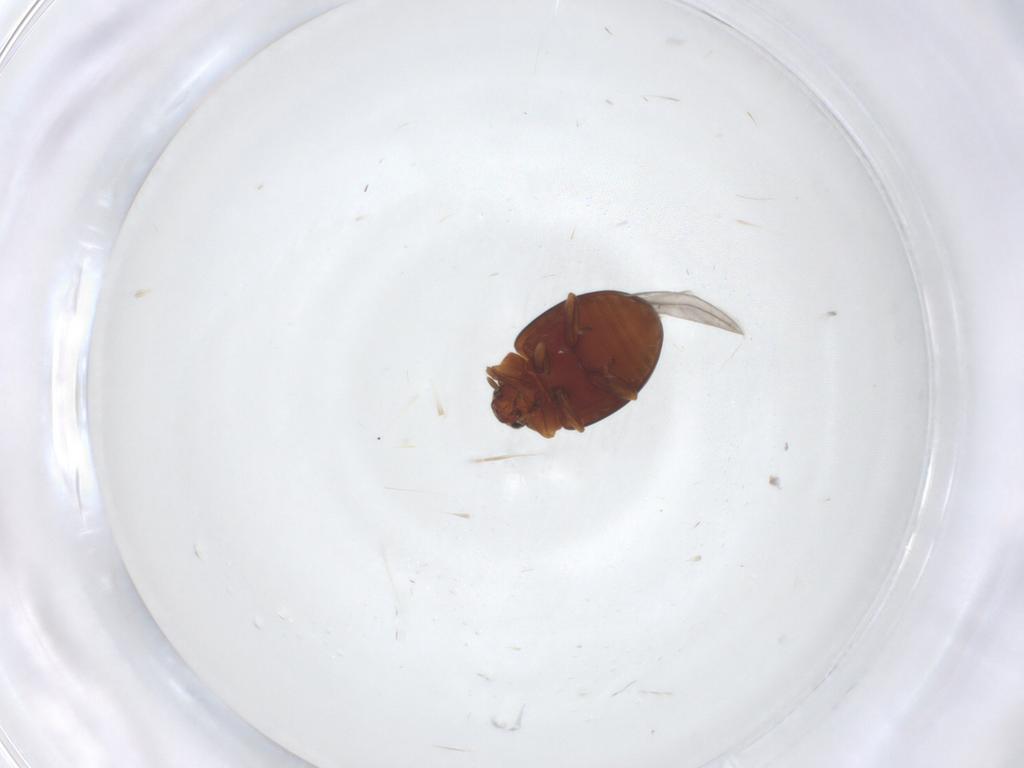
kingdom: Animalia
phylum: Arthropoda
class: Insecta
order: Coleoptera
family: Coccinellidae
